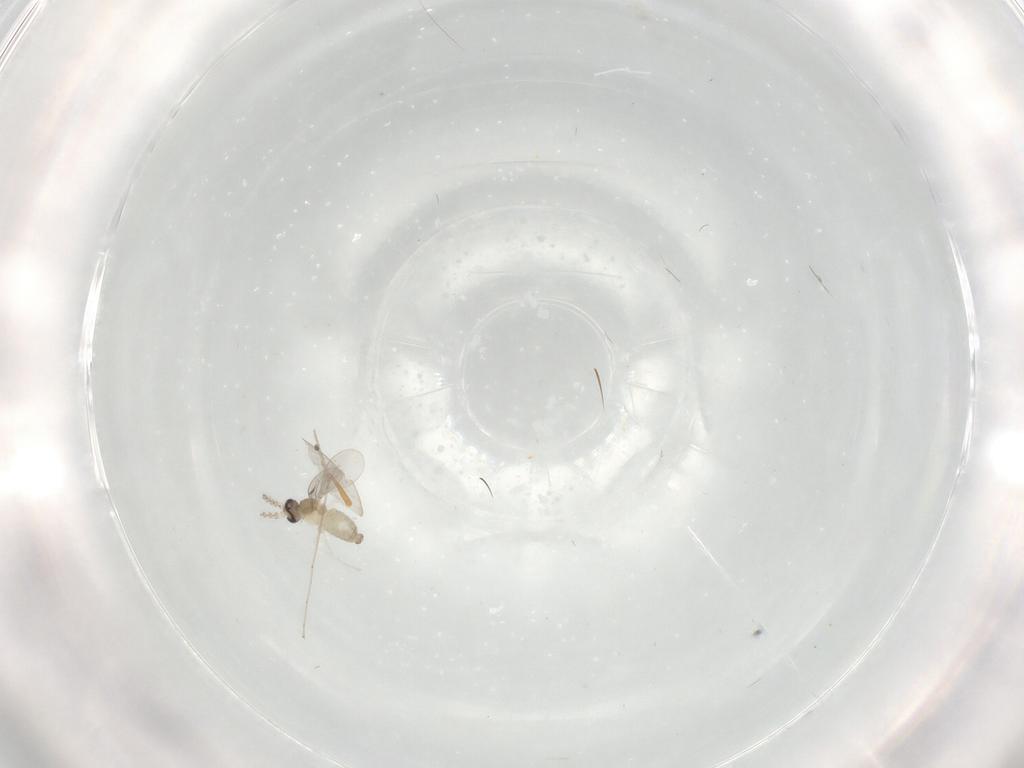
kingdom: Animalia
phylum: Arthropoda
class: Insecta
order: Diptera
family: Cecidomyiidae
